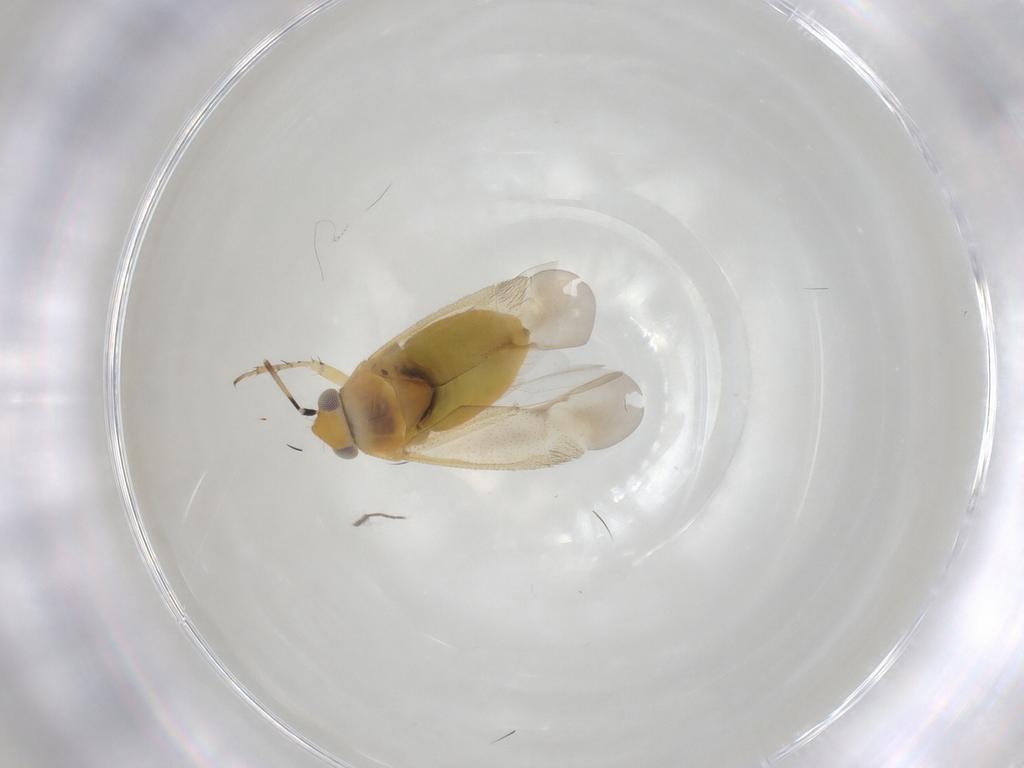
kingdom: Animalia
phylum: Arthropoda
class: Insecta
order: Hemiptera
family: Miridae
